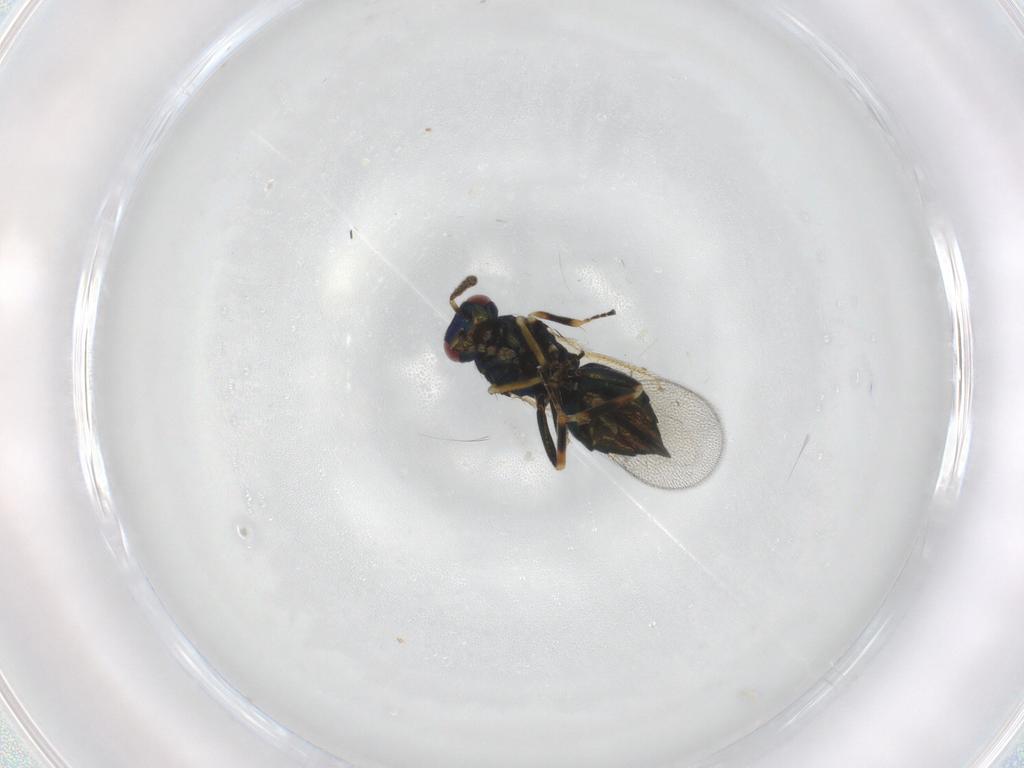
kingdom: Animalia
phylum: Arthropoda
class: Insecta
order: Hymenoptera
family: Eulophidae
